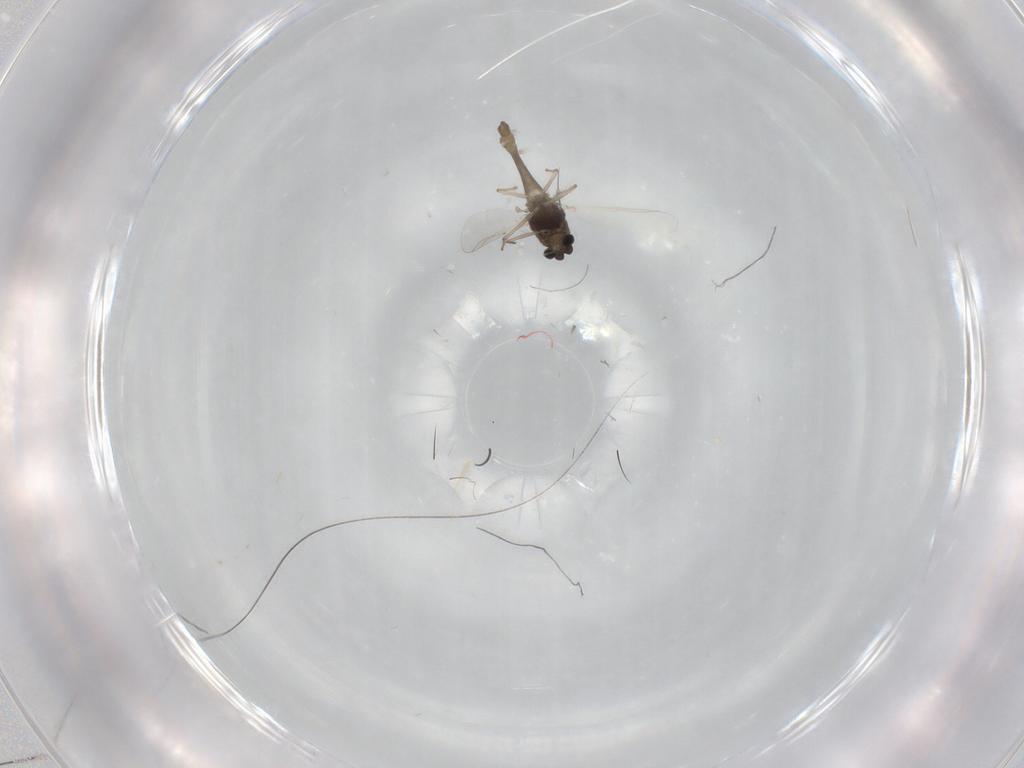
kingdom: Animalia
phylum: Arthropoda
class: Insecta
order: Diptera
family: Chironomidae
